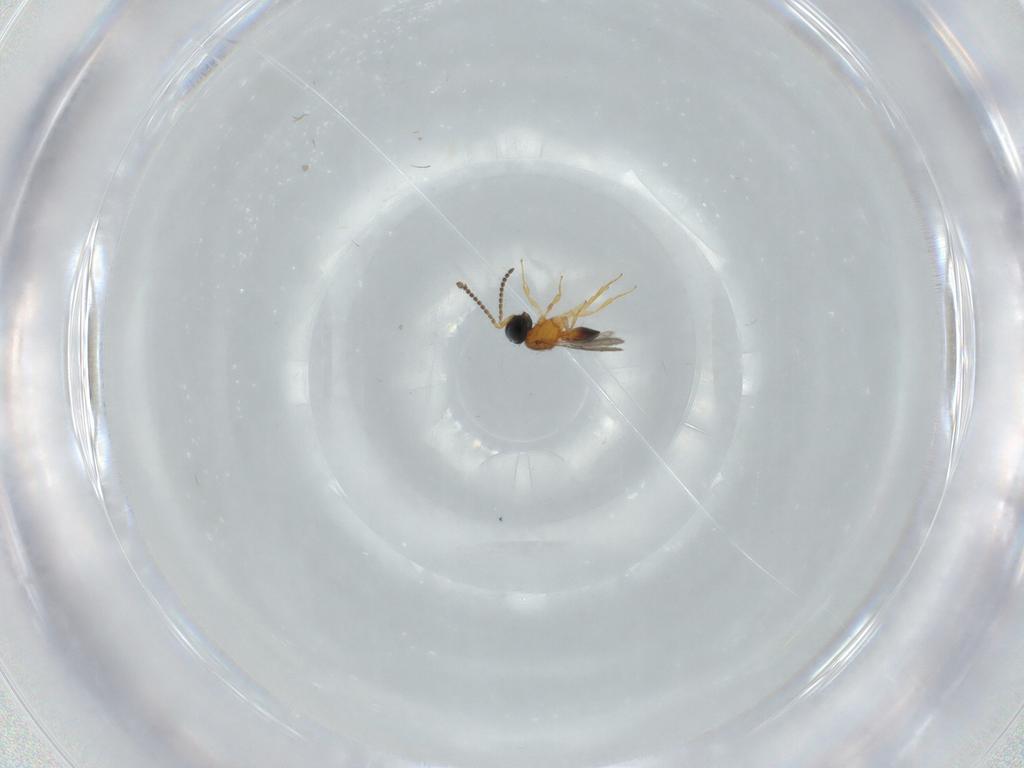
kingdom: Animalia
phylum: Arthropoda
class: Insecta
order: Hymenoptera
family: Scelionidae
